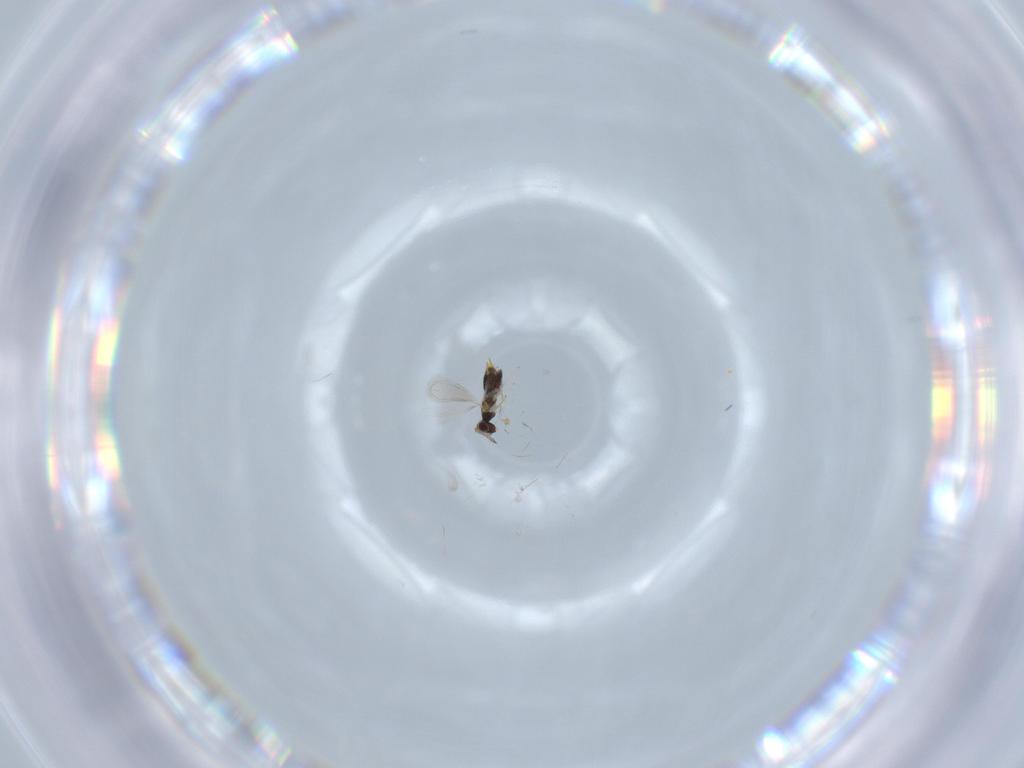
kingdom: Animalia
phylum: Arthropoda
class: Insecta
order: Hymenoptera
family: Aphelinidae
